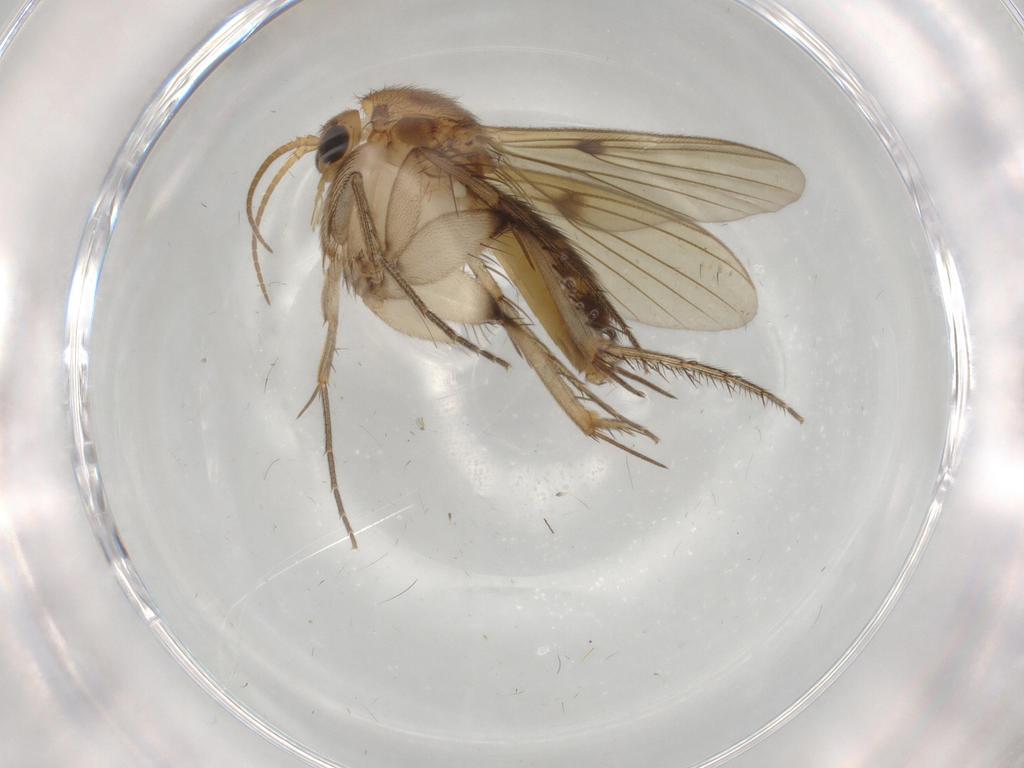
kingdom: Animalia
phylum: Arthropoda
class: Insecta
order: Diptera
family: Mycetophilidae
